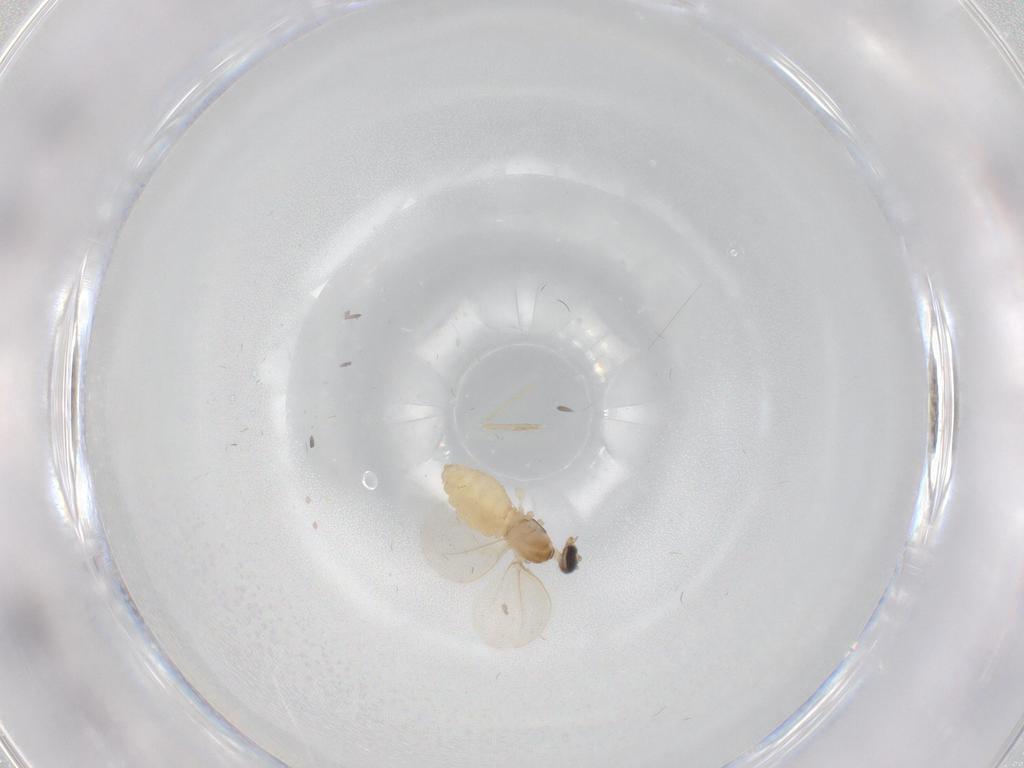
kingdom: Animalia
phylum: Arthropoda
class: Insecta
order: Diptera
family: Cecidomyiidae
